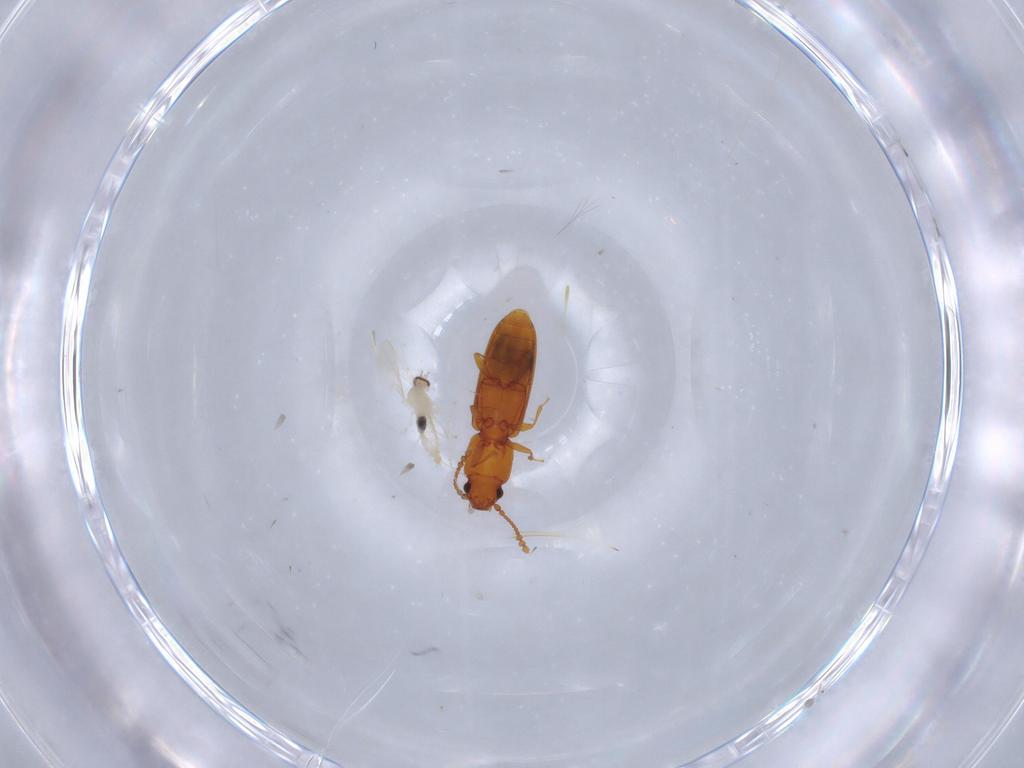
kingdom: Animalia
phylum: Arthropoda
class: Insecta
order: Diptera
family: Cecidomyiidae
